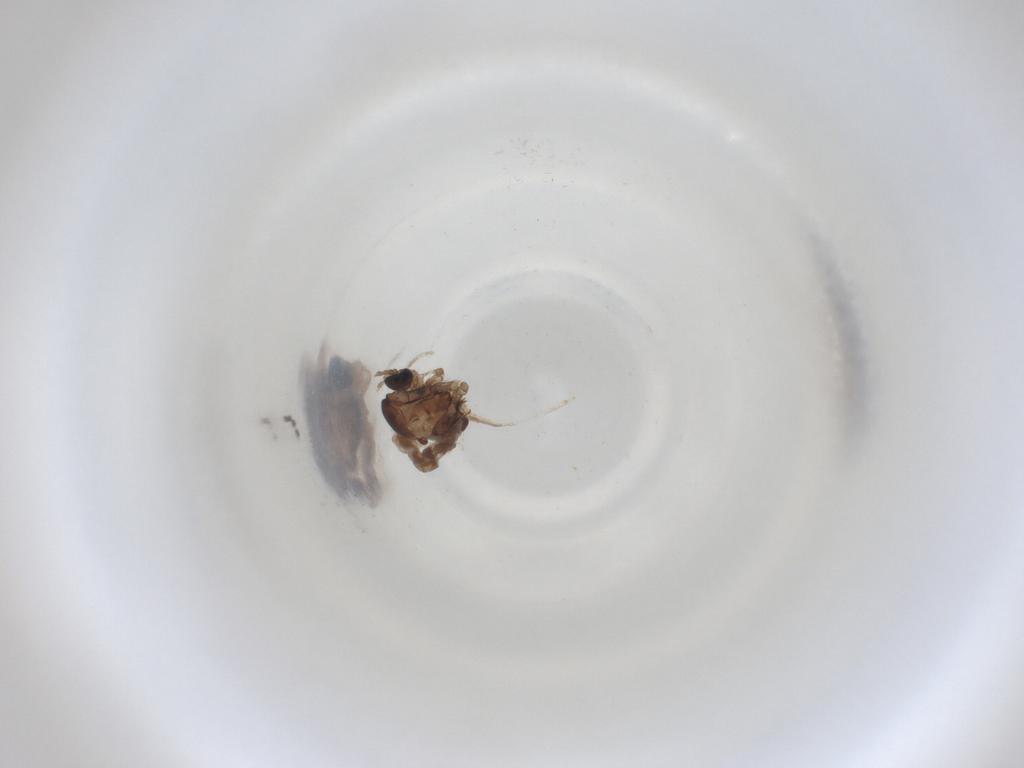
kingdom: Animalia
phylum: Arthropoda
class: Insecta
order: Diptera
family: Cecidomyiidae
